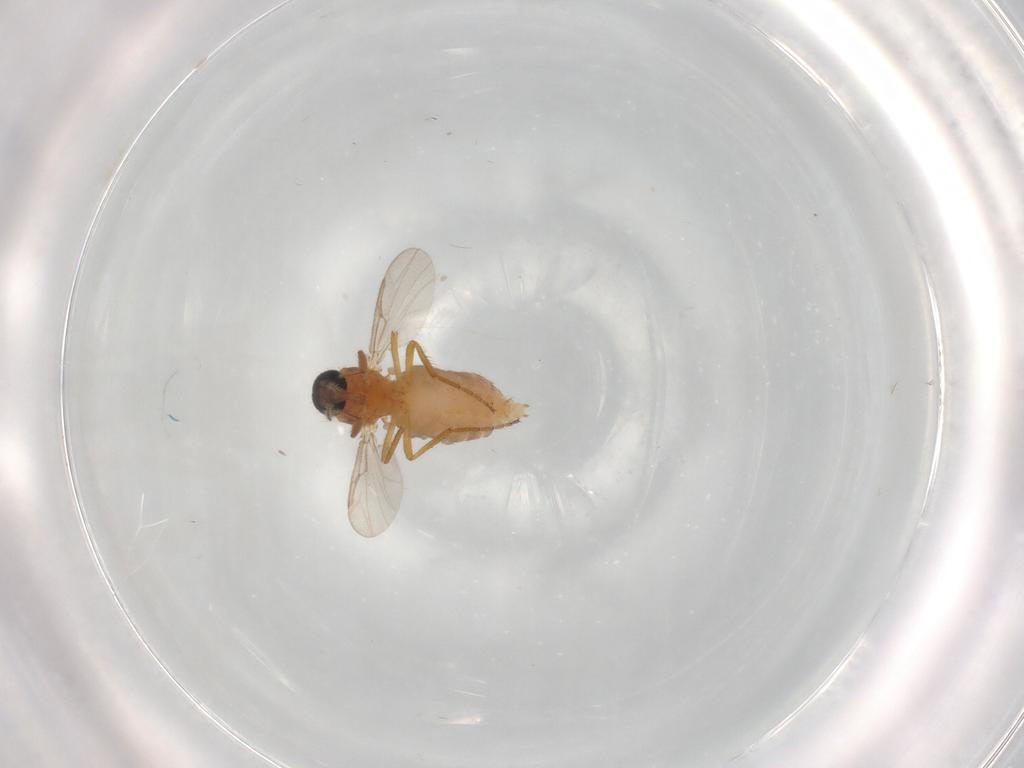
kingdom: Animalia
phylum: Arthropoda
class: Insecta
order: Diptera
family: Ceratopogonidae
